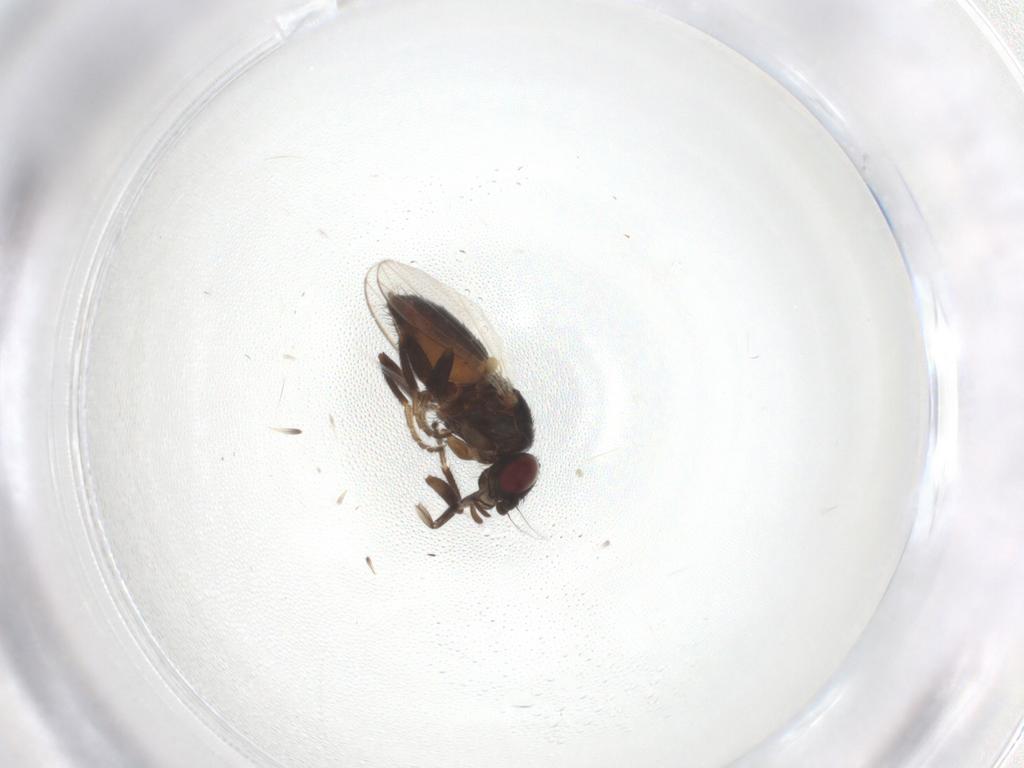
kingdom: Animalia
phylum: Arthropoda
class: Insecta
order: Diptera
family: Milichiidae
